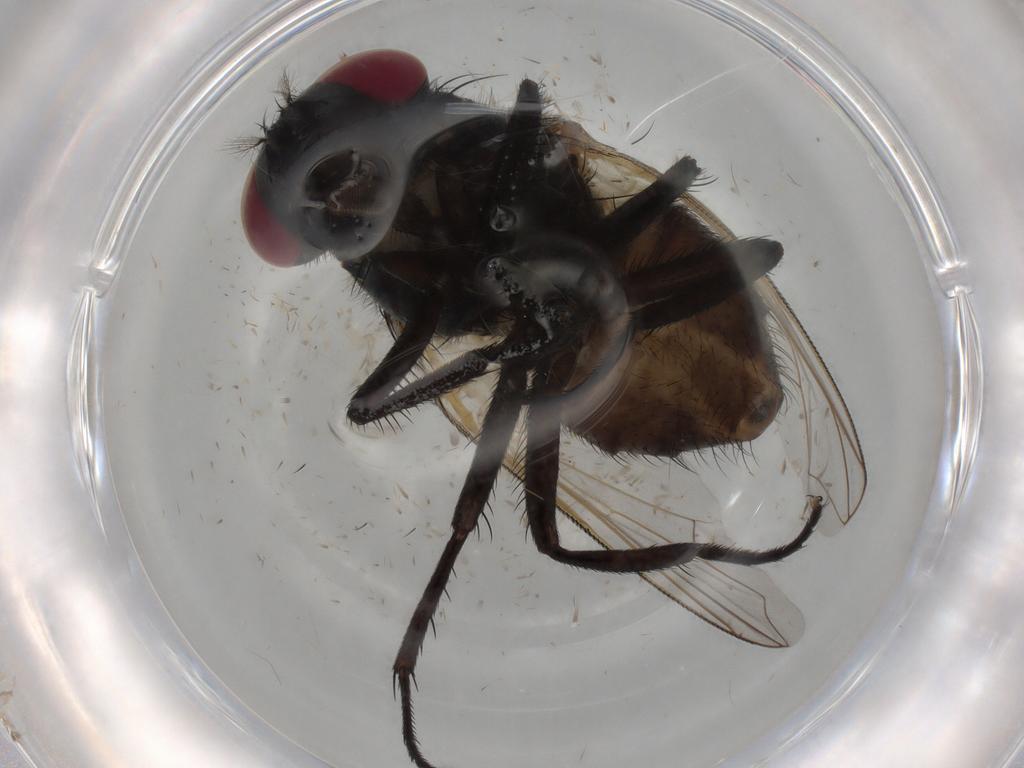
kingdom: Animalia
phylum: Arthropoda
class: Insecta
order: Diptera
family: Muscidae
